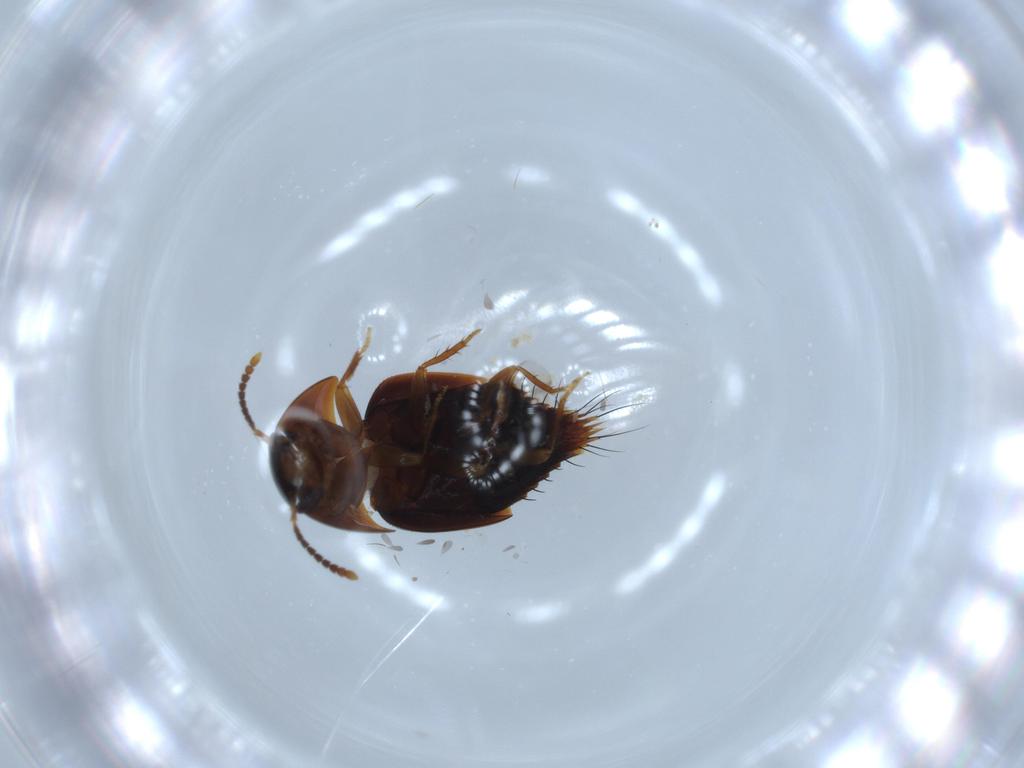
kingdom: Animalia
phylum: Arthropoda
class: Insecta
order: Coleoptera
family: Staphylinidae
